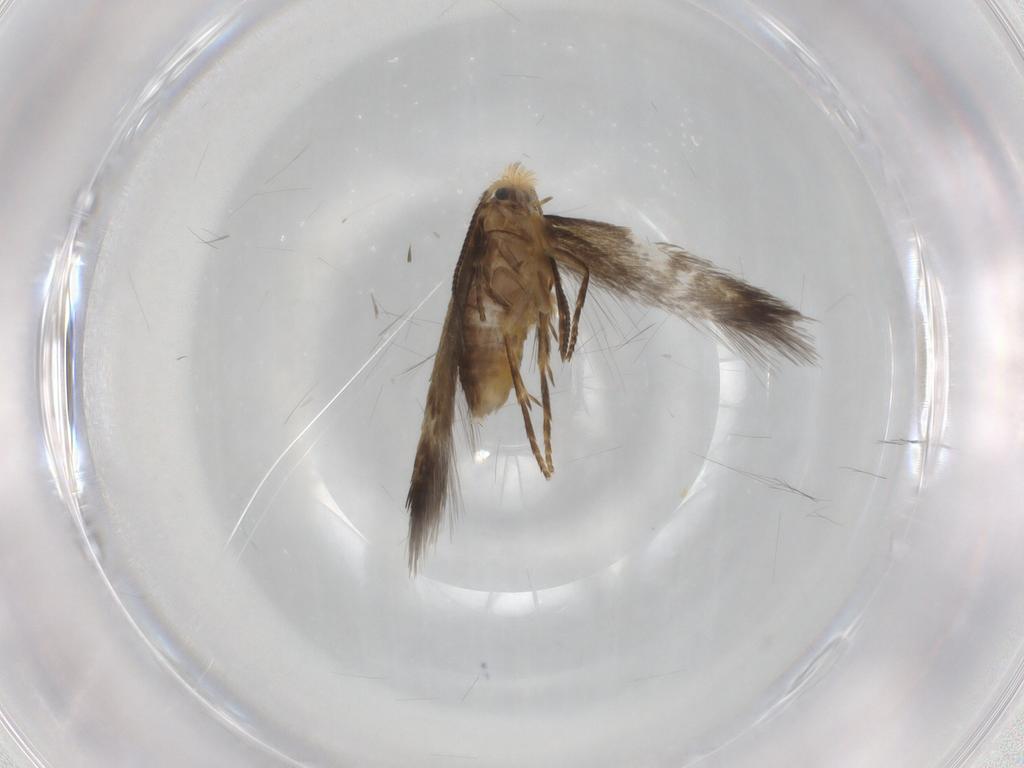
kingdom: Animalia
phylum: Arthropoda
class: Insecta
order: Lepidoptera
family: Nepticulidae
